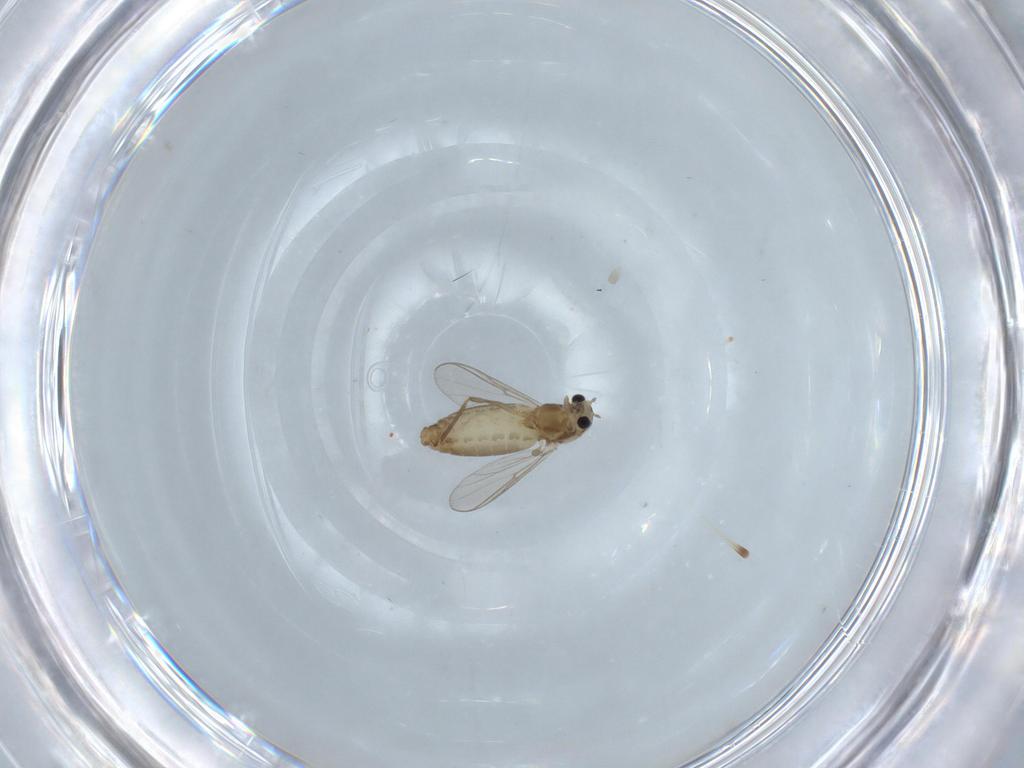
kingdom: Animalia
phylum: Arthropoda
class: Insecta
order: Diptera
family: Chironomidae
